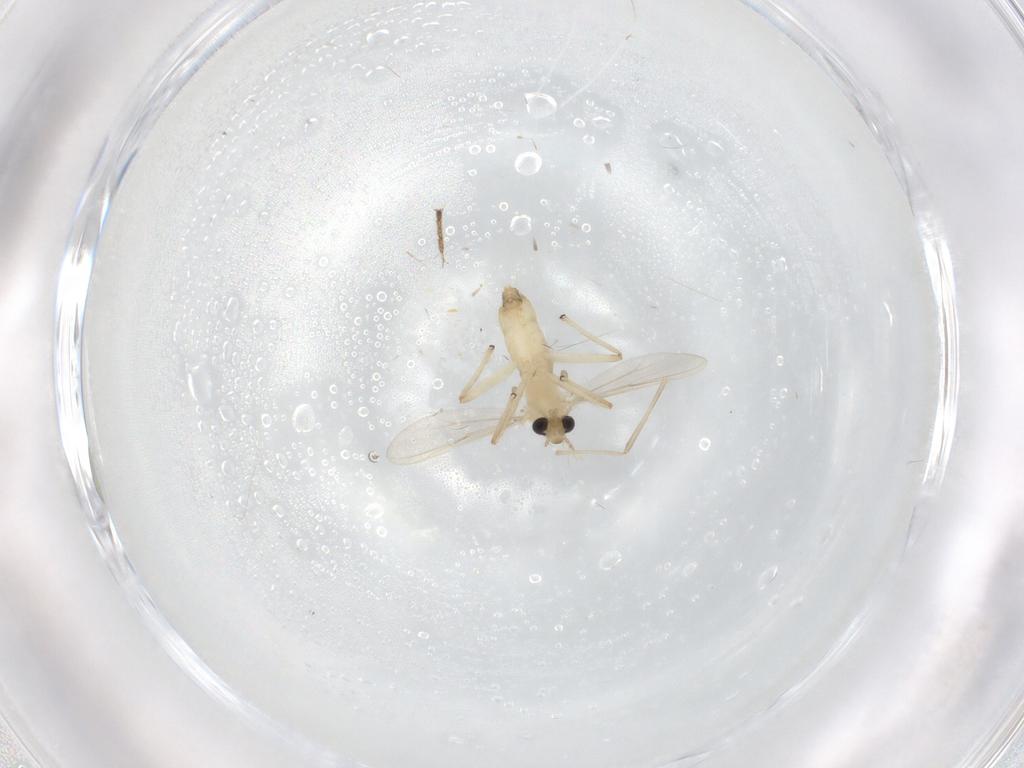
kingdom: Animalia
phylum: Arthropoda
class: Insecta
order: Diptera
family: Chironomidae
